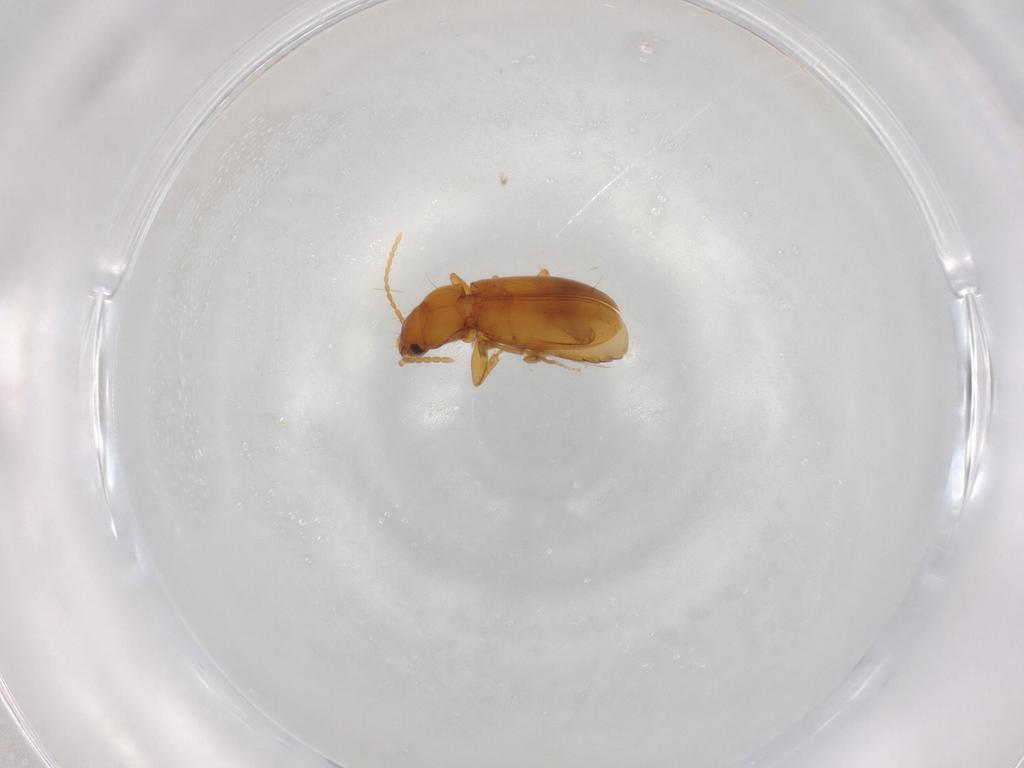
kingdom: Animalia
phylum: Arthropoda
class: Insecta
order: Coleoptera
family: Carabidae
